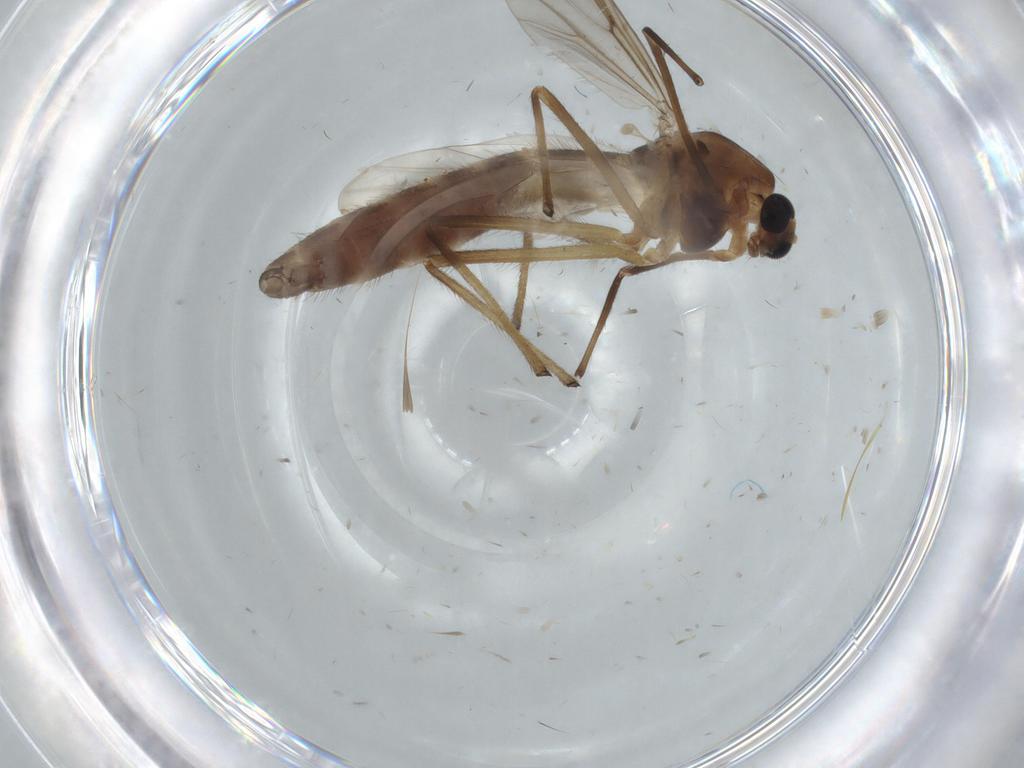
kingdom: Animalia
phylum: Arthropoda
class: Insecta
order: Diptera
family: Chironomidae
